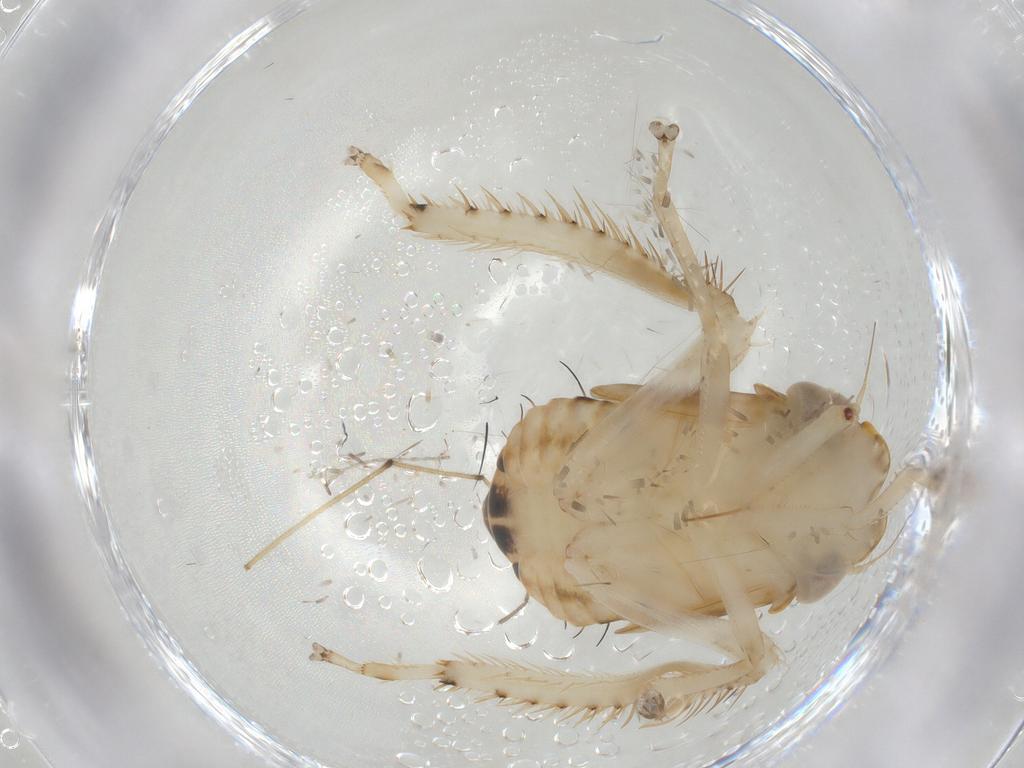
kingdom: Animalia
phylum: Arthropoda
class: Insecta
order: Hemiptera
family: Cicadellidae
